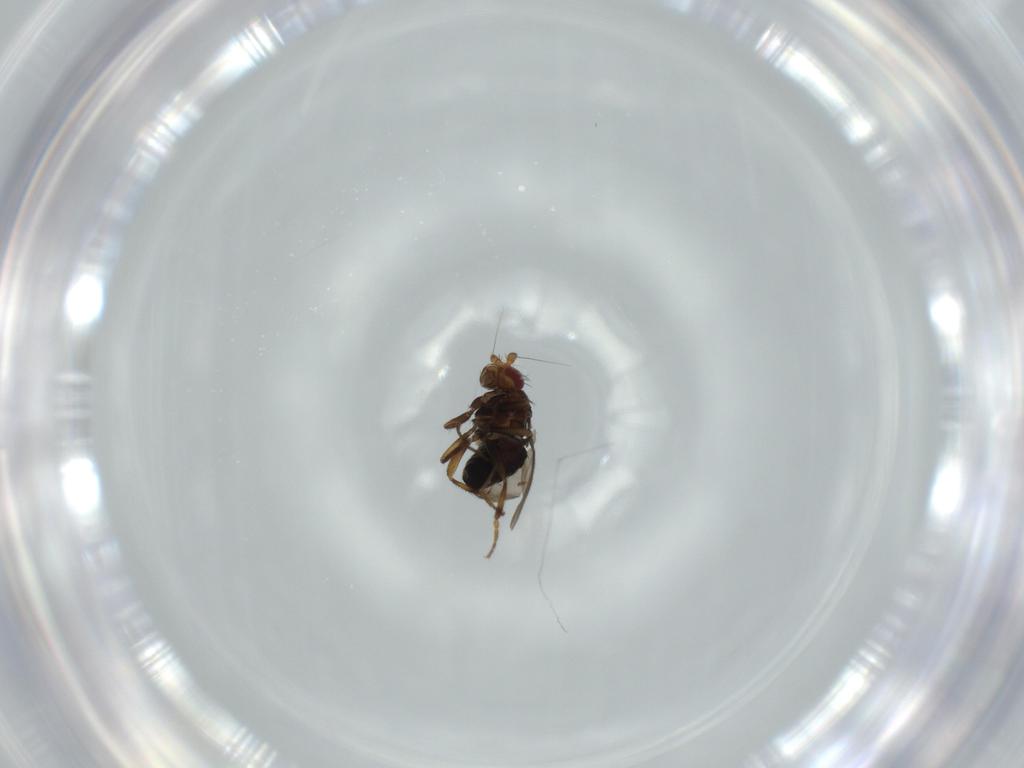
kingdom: Animalia
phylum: Arthropoda
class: Insecta
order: Diptera
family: Sphaeroceridae
